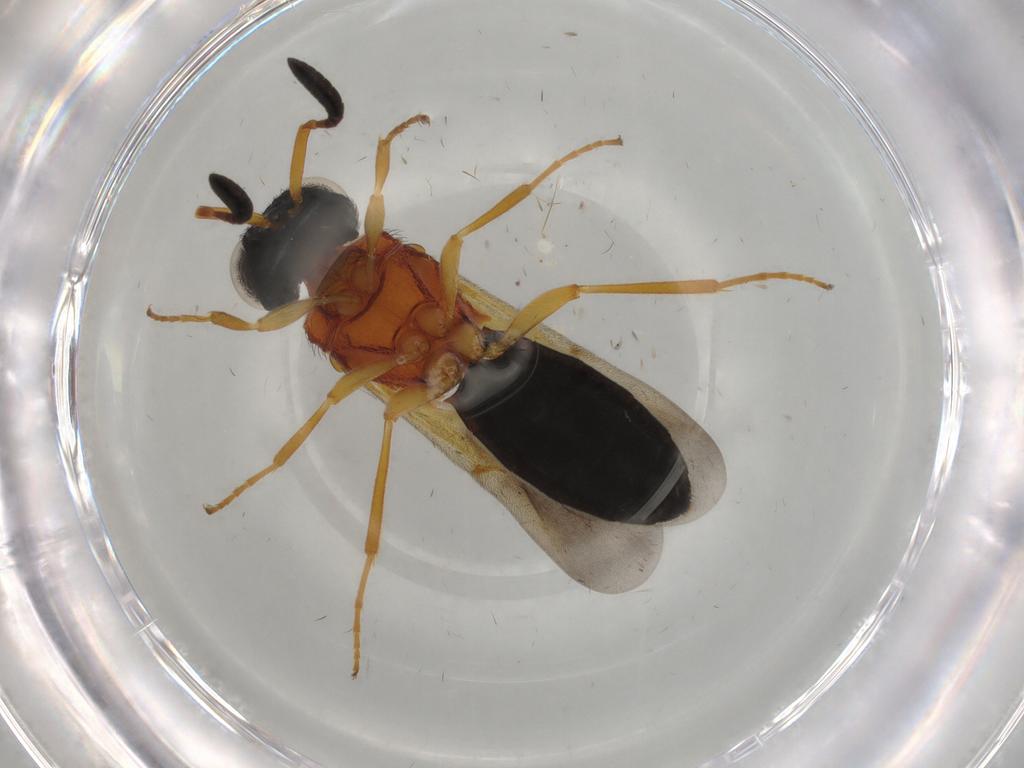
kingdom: Animalia
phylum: Arthropoda
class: Insecta
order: Hymenoptera
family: Scelionidae
